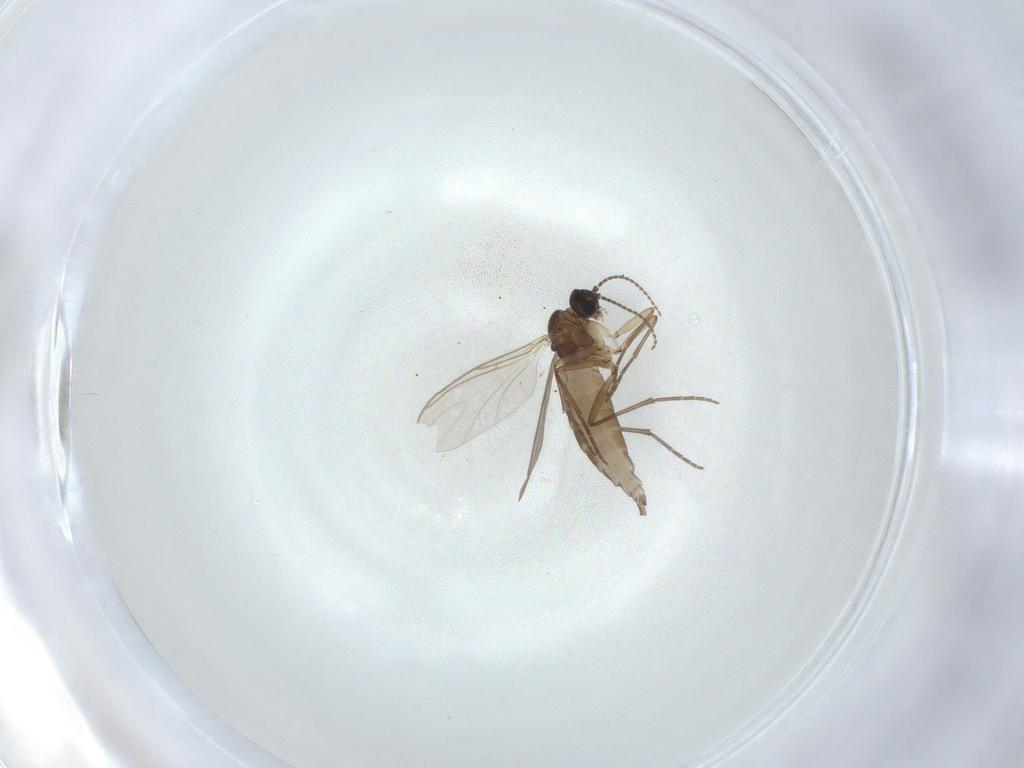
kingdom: Animalia
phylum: Arthropoda
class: Insecta
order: Diptera
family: Sciaridae
